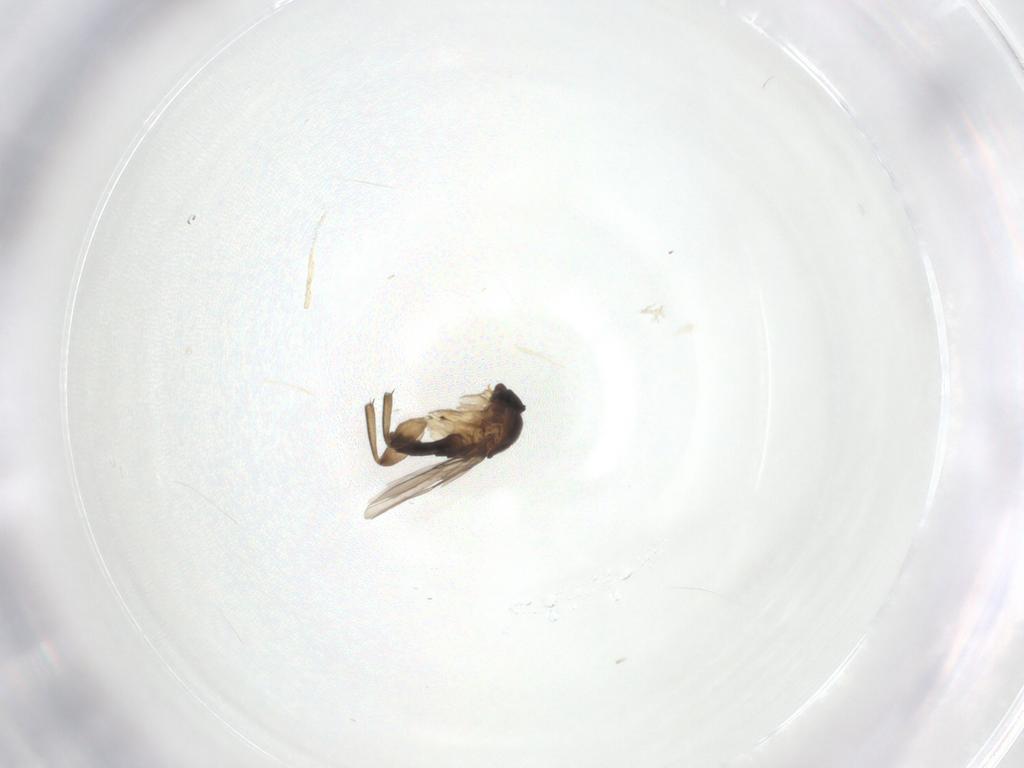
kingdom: Animalia
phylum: Arthropoda
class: Insecta
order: Diptera
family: Phoridae
